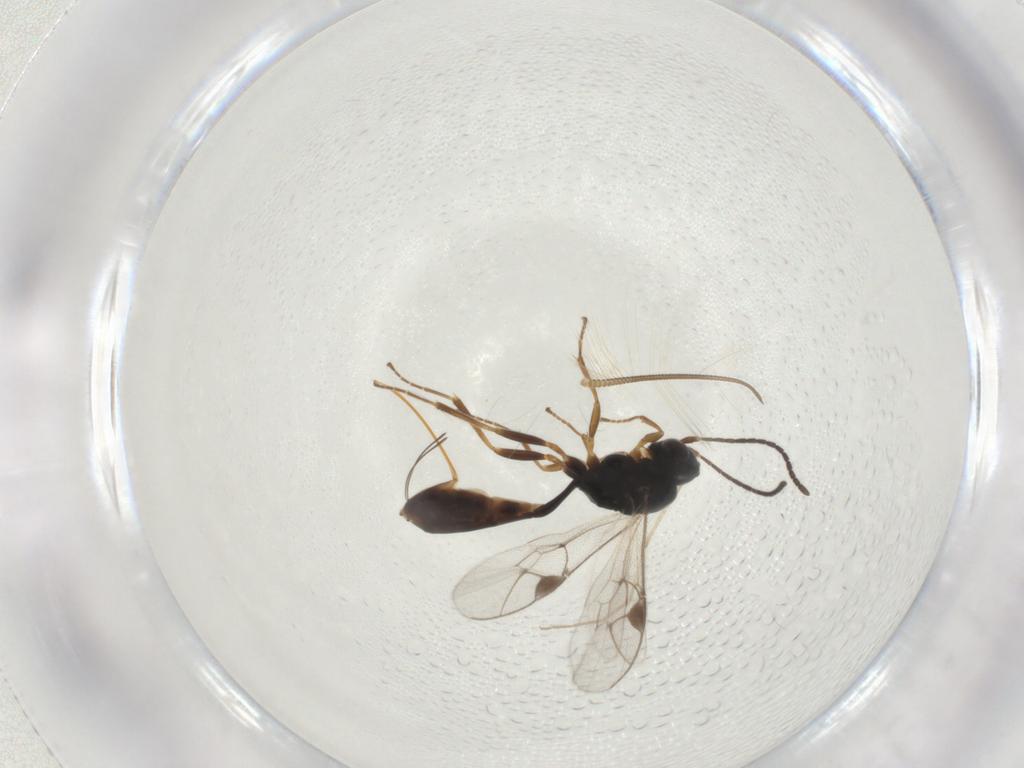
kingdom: Animalia
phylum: Arthropoda
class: Insecta
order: Hymenoptera
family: Ichneumonidae
